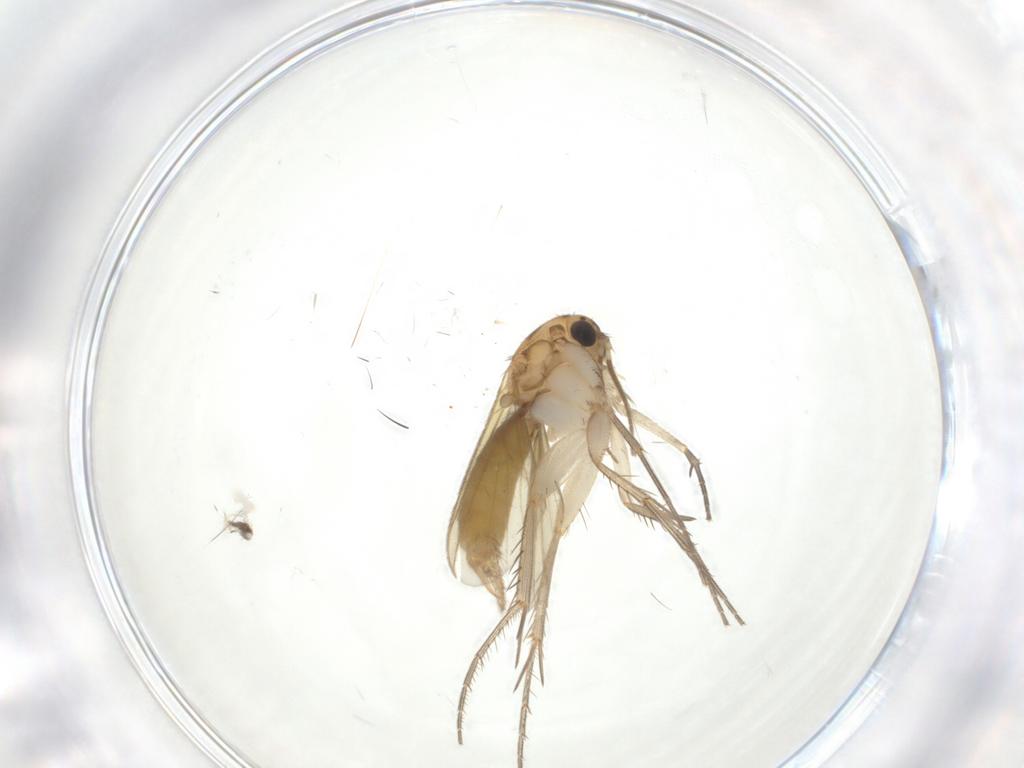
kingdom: Animalia
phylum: Arthropoda
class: Insecta
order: Diptera
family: Mycetophilidae
